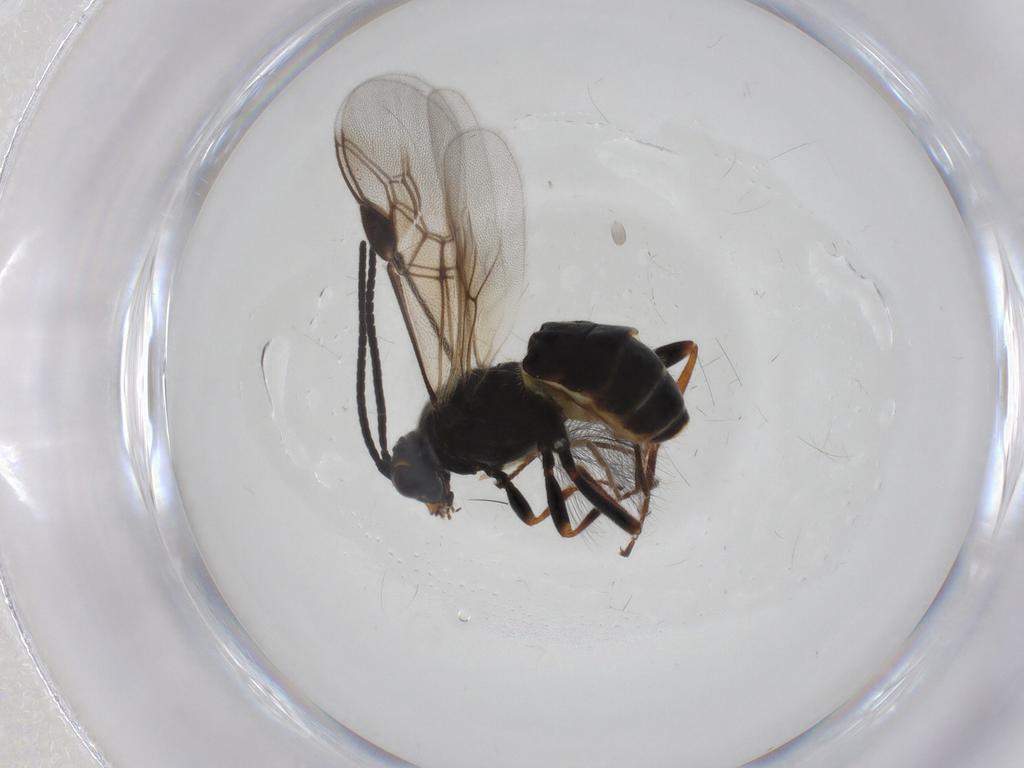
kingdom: Animalia
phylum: Arthropoda
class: Insecta
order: Hymenoptera
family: Braconidae
